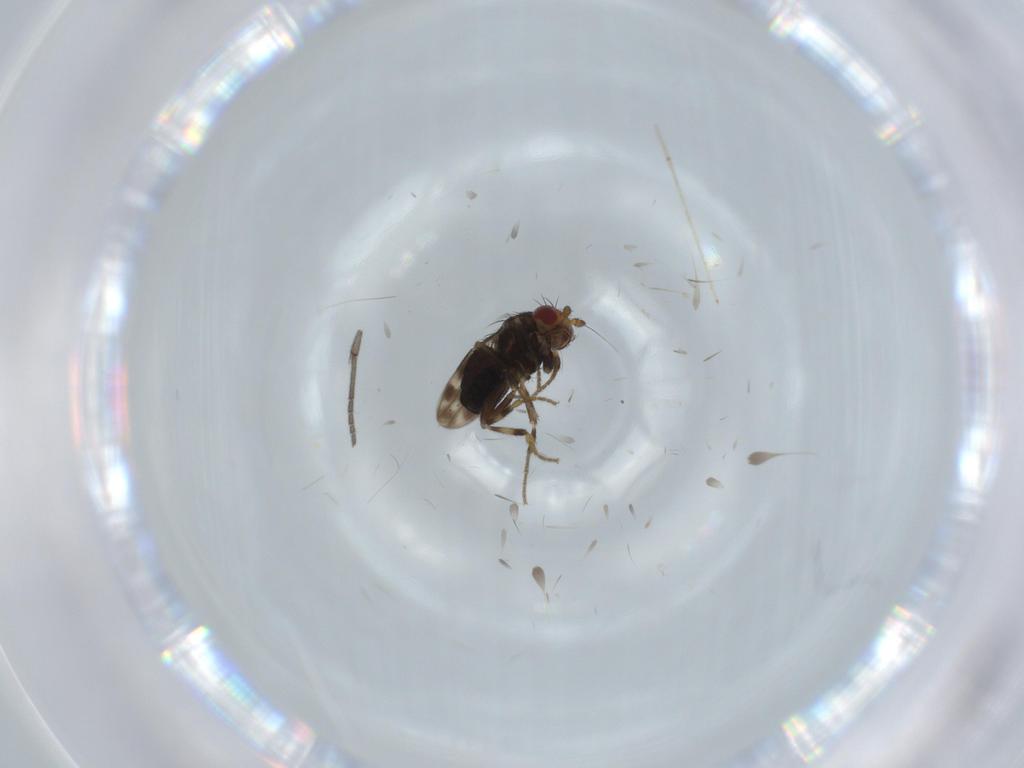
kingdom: Animalia
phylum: Arthropoda
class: Insecta
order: Diptera
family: Sphaeroceridae
